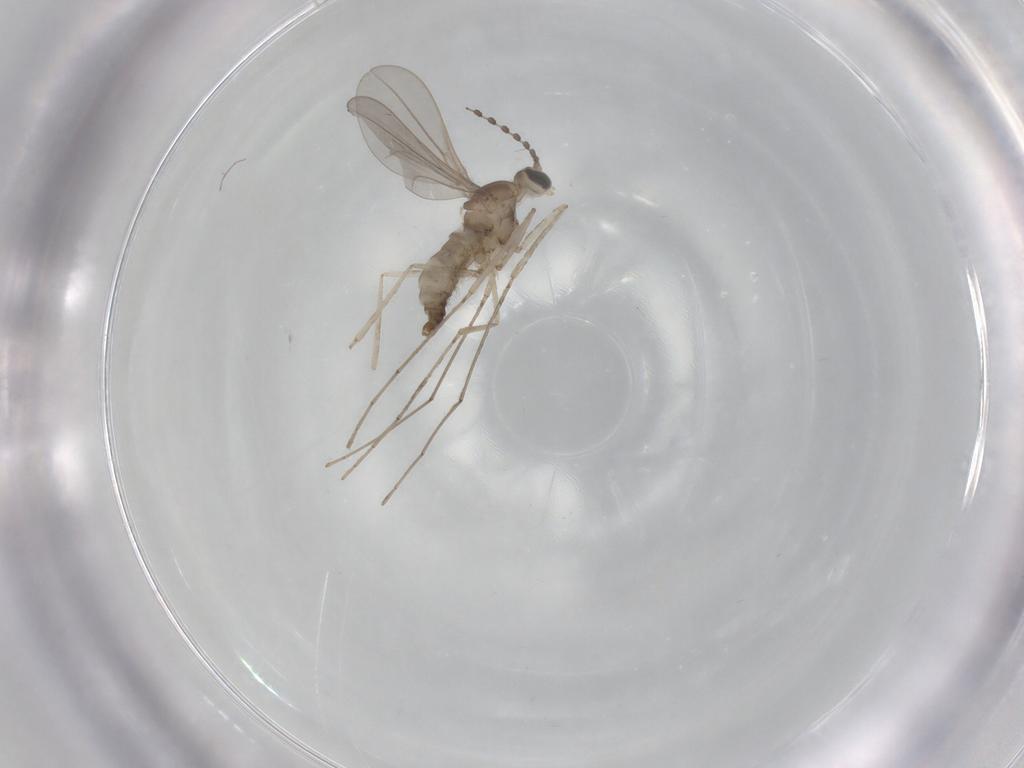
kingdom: Animalia
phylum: Arthropoda
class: Insecta
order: Diptera
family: Cecidomyiidae
